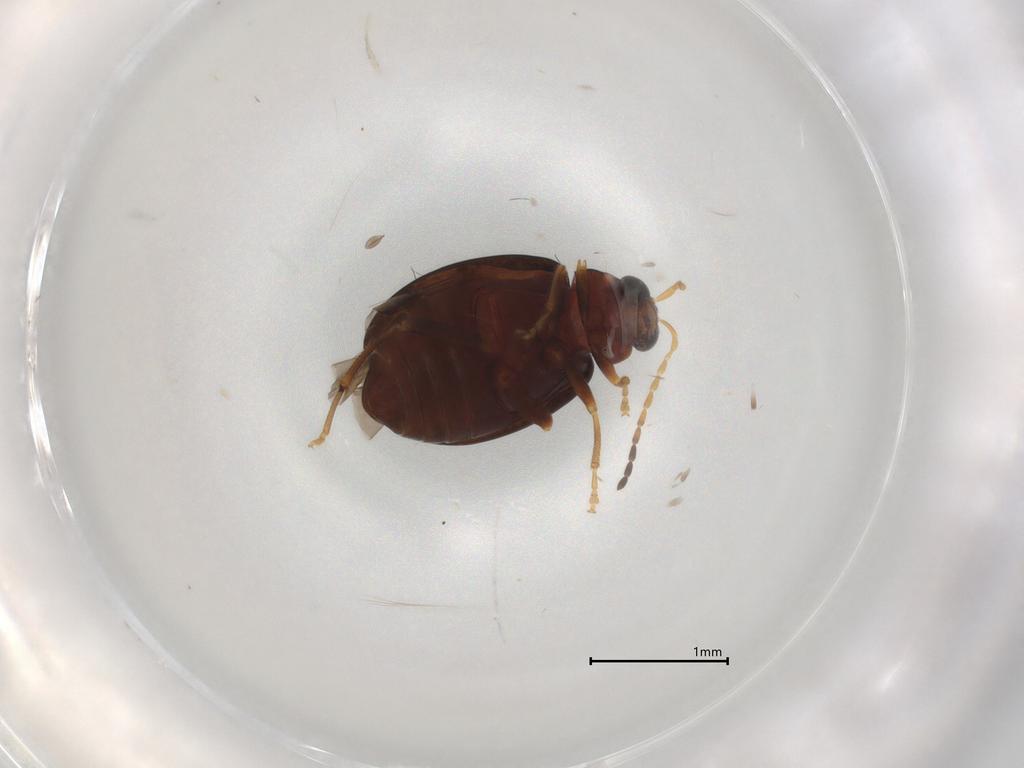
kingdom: Animalia
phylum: Arthropoda
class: Insecta
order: Coleoptera
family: Chrysomelidae
